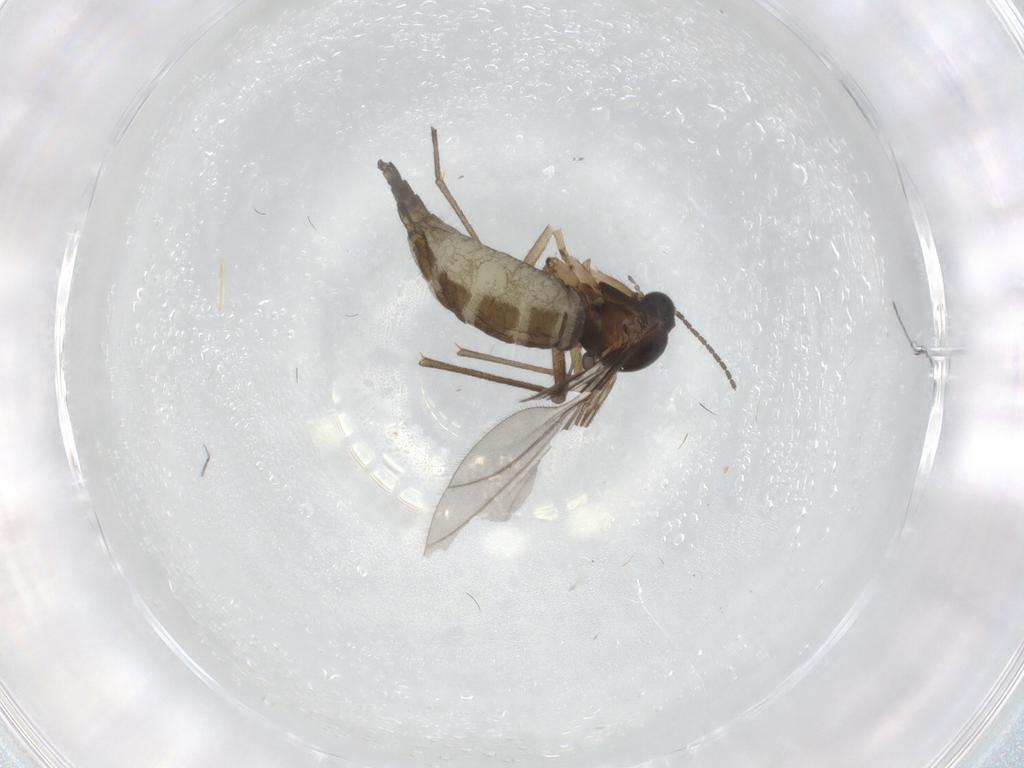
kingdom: Animalia
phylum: Arthropoda
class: Insecta
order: Diptera
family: Sciaridae
